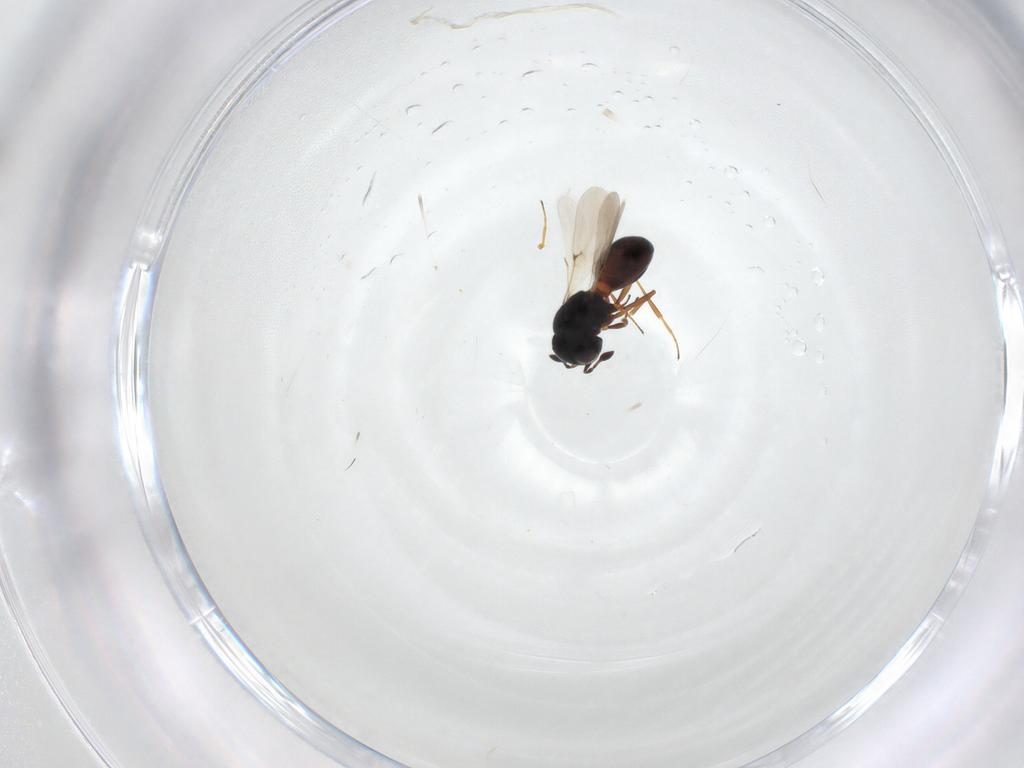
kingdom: Animalia
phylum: Arthropoda
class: Insecta
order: Hymenoptera
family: Scelionidae
